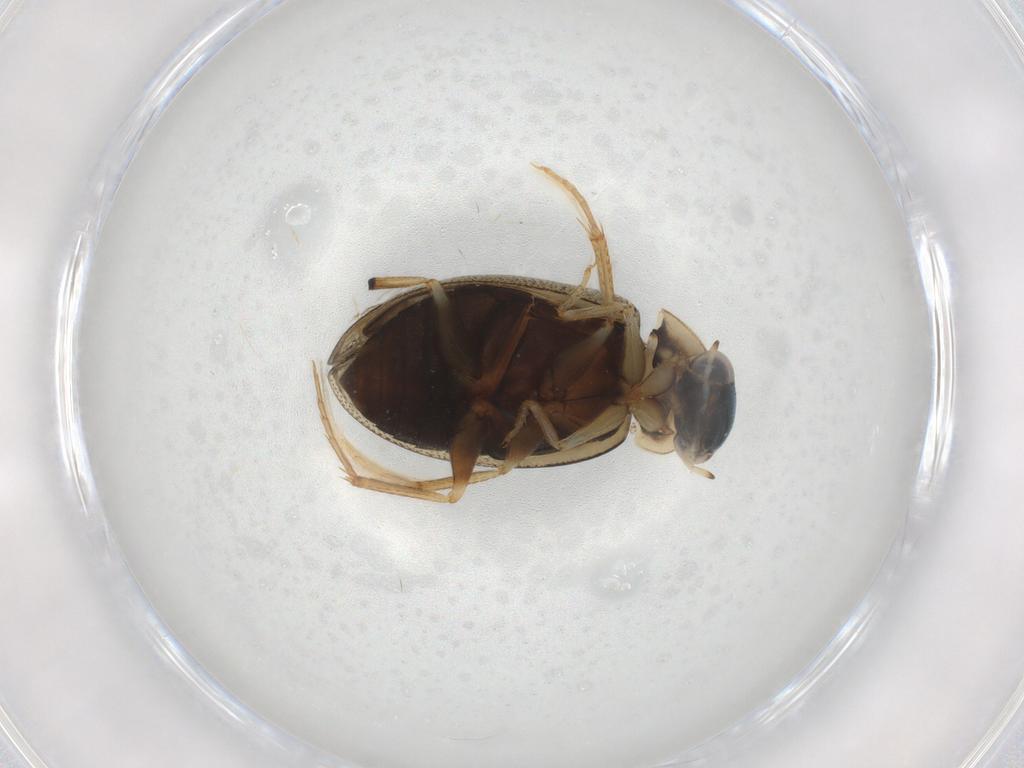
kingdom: Animalia
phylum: Arthropoda
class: Insecta
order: Coleoptera
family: Hydrophilidae
